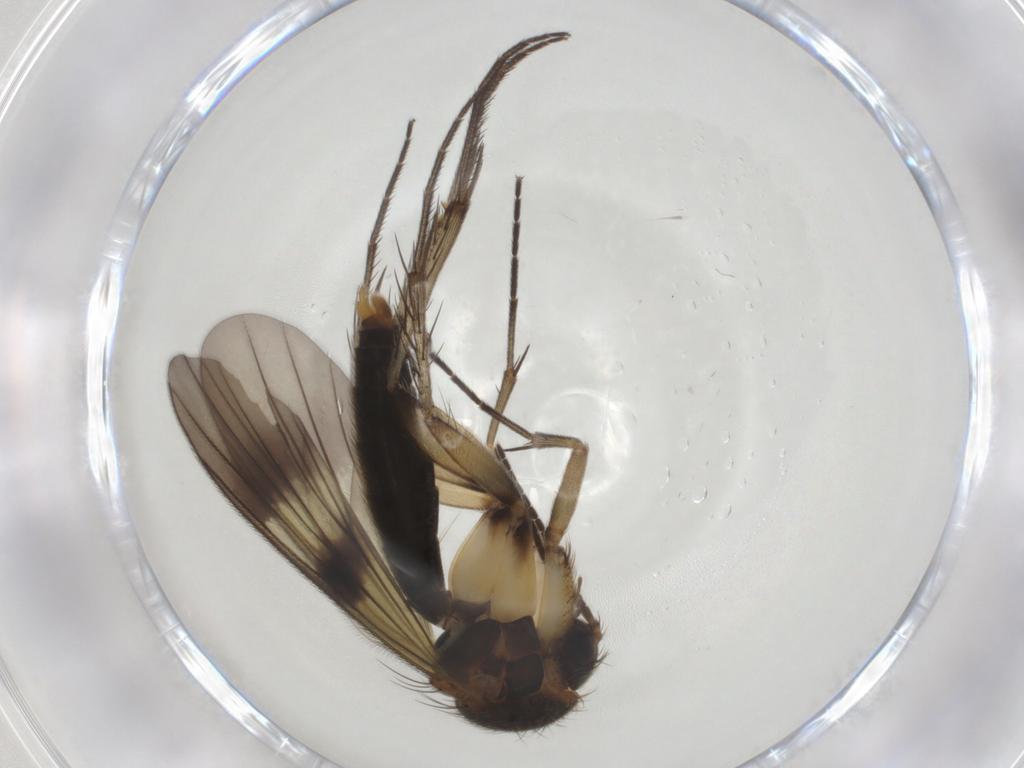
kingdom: Animalia
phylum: Arthropoda
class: Insecta
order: Diptera
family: Mycetophilidae
